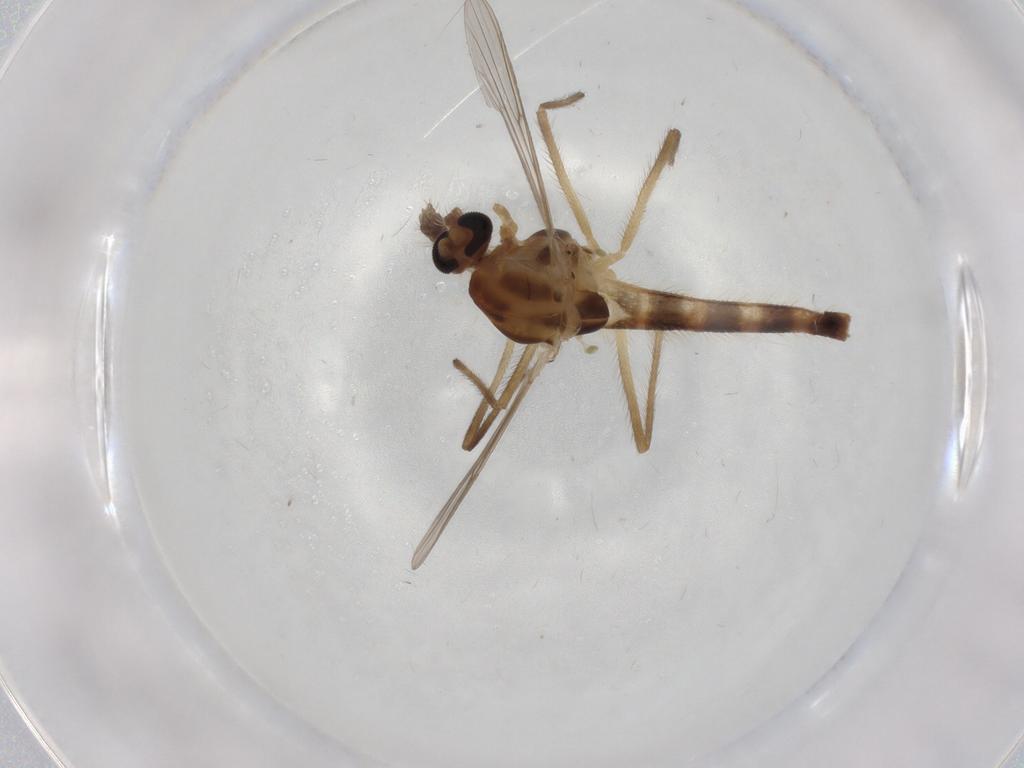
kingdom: Animalia
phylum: Arthropoda
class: Insecta
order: Diptera
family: Chironomidae
